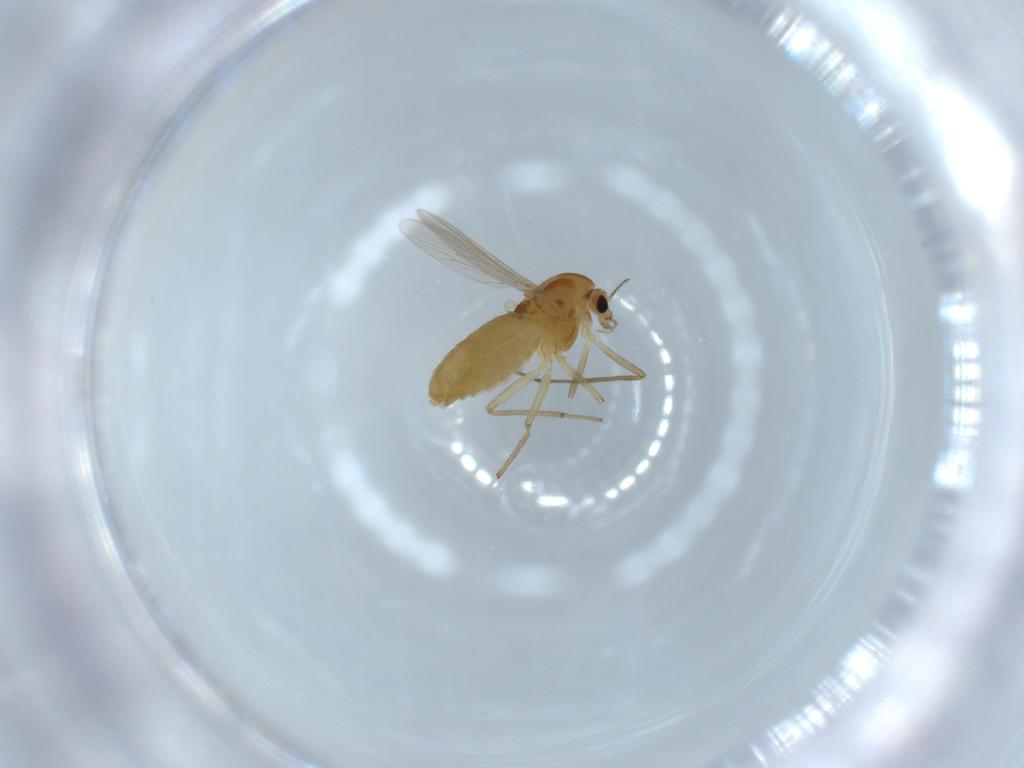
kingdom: Animalia
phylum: Arthropoda
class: Insecta
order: Diptera
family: Chironomidae
